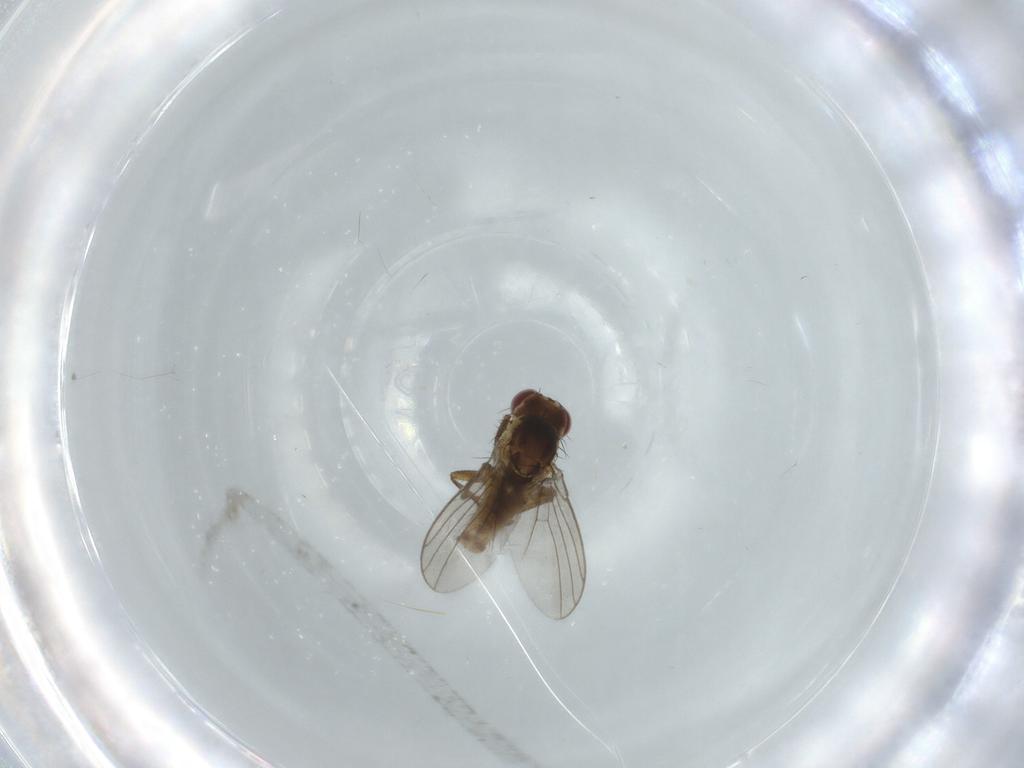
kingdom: Animalia
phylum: Arthropoda
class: Insecta
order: Diptera
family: Agromyzidae
